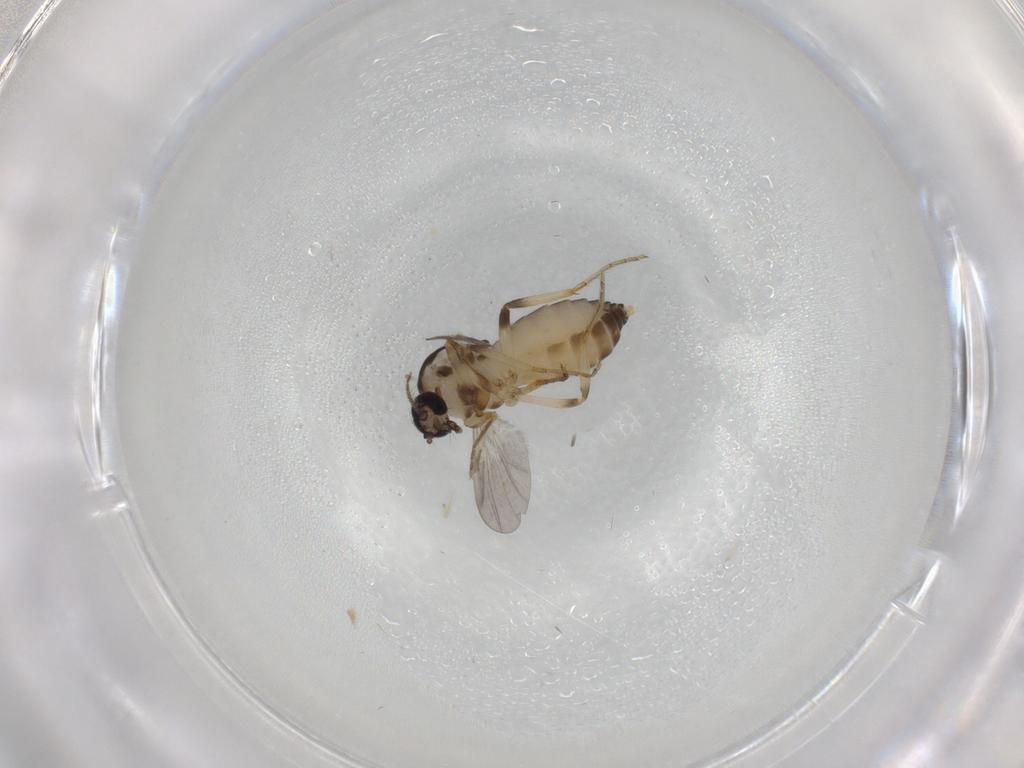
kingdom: Animalia
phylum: Arthropoda
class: Insecta
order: Diptera
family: Ceratopogonidae
